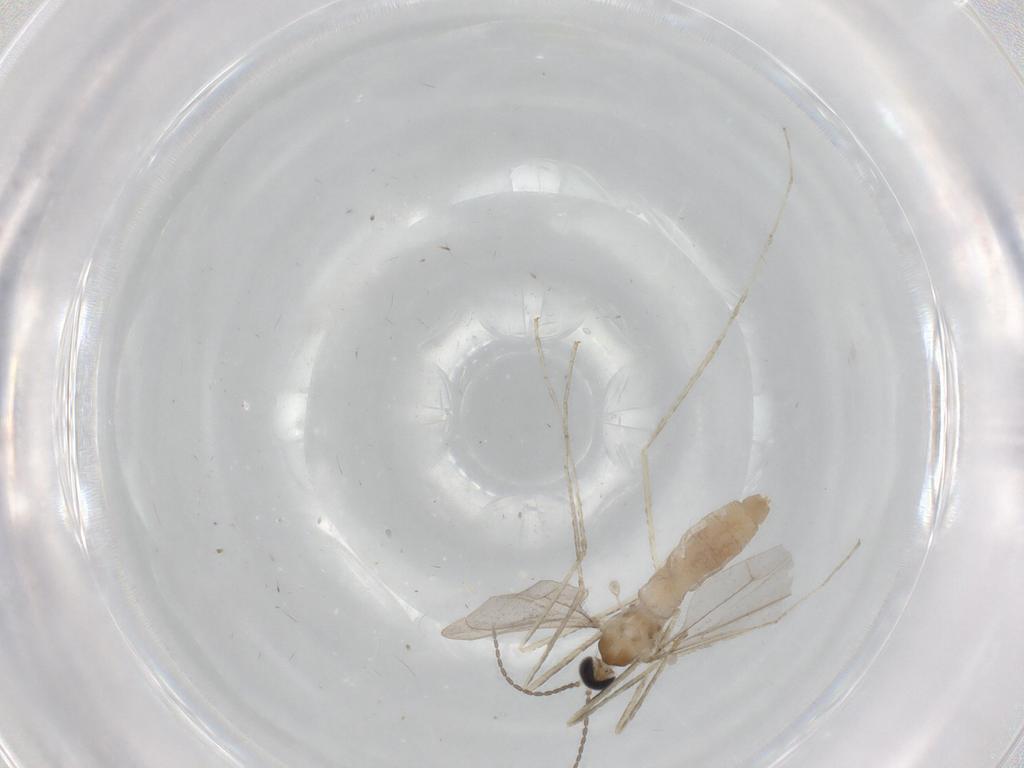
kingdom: Animalia
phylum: Arthropoda
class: Insecta
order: Diptera
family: Cecidomyiidae
